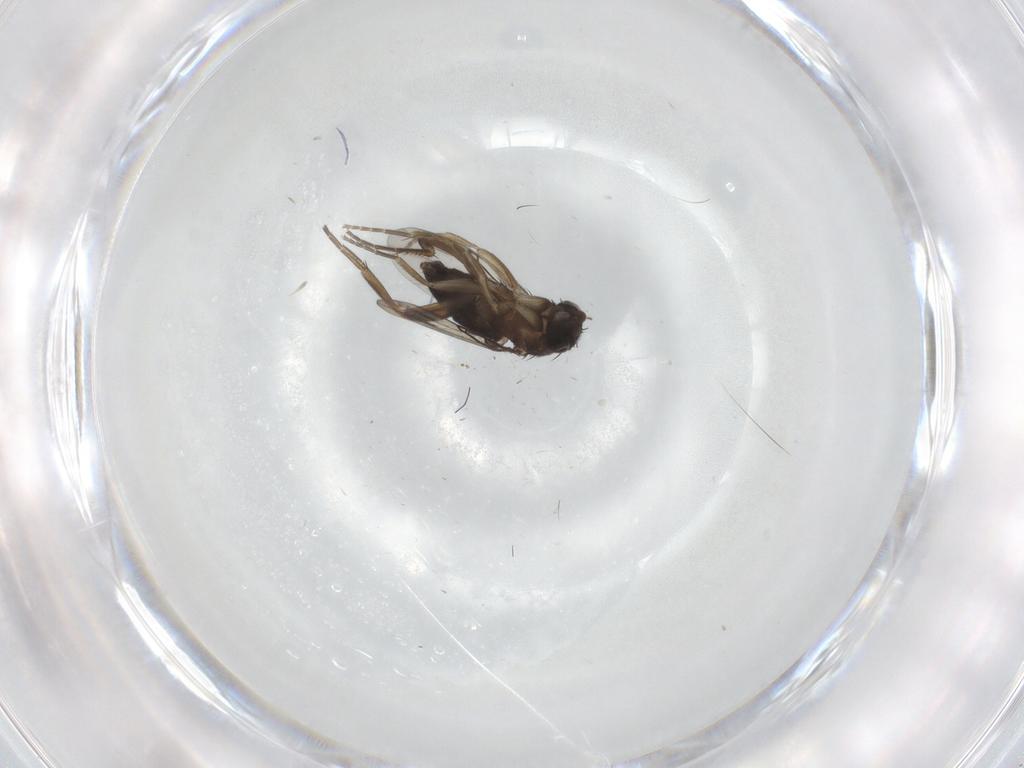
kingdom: Animalia
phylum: Arthropoda
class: Insecta
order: Diptera
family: Phoridae
